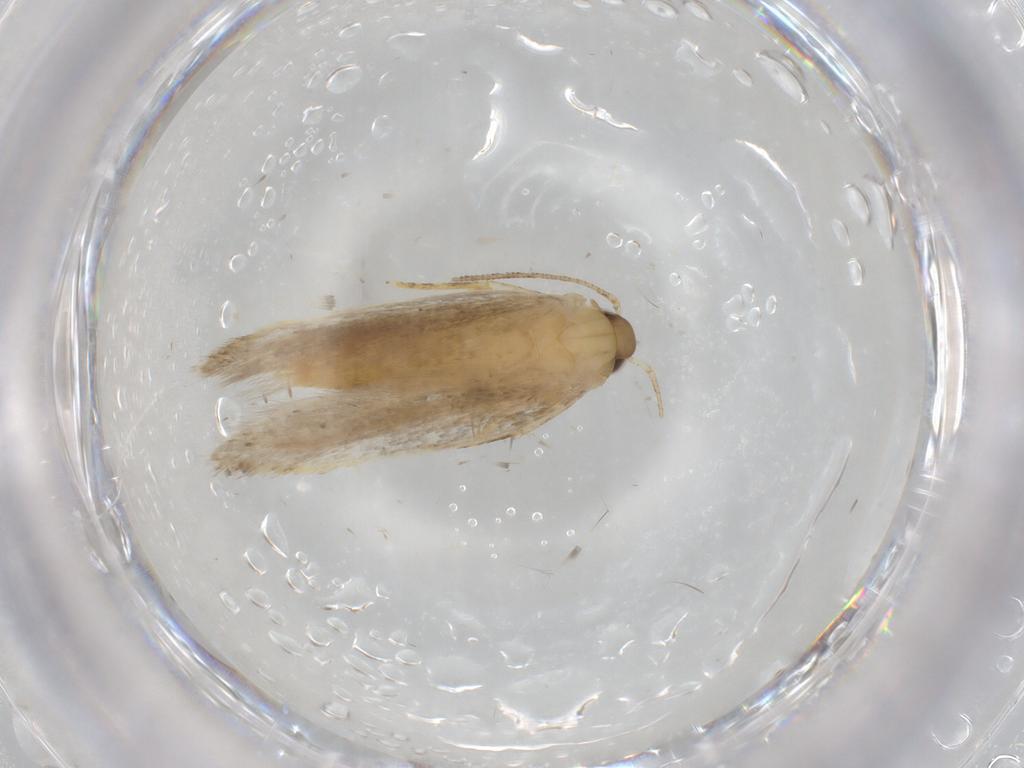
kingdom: Animalia
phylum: Arthropoda
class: Insecta
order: Lepidoptera
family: Autostichidae
